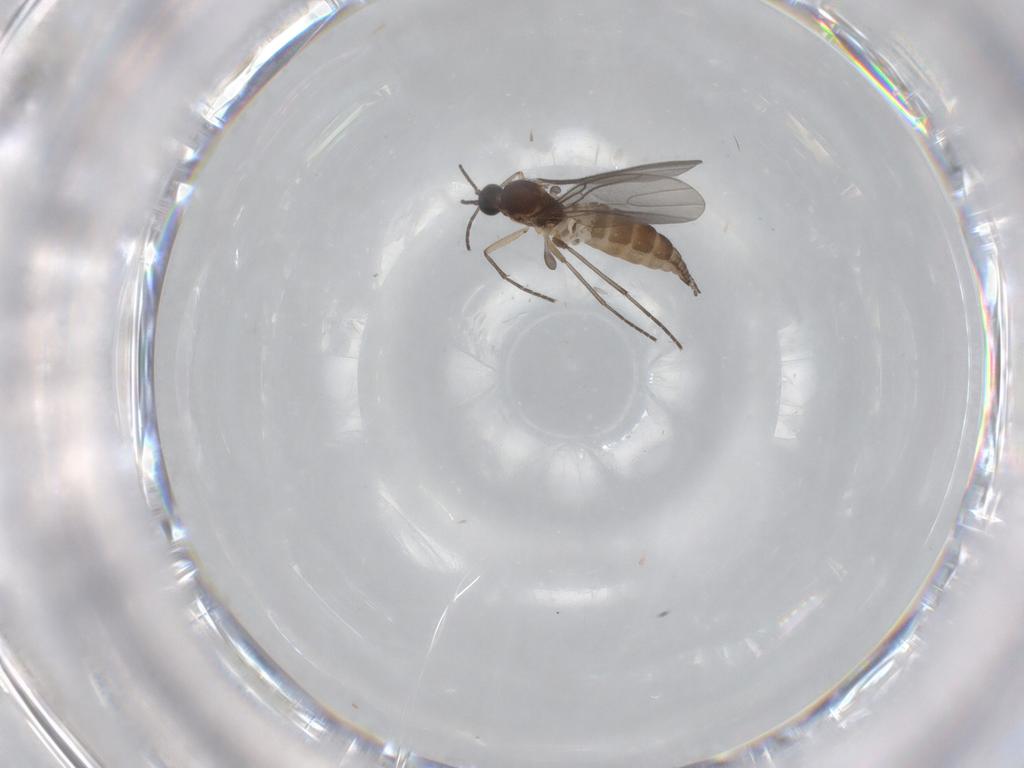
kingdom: Animalia
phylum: Arthropoda
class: Insecta
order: Diptera
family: Sciaridae
